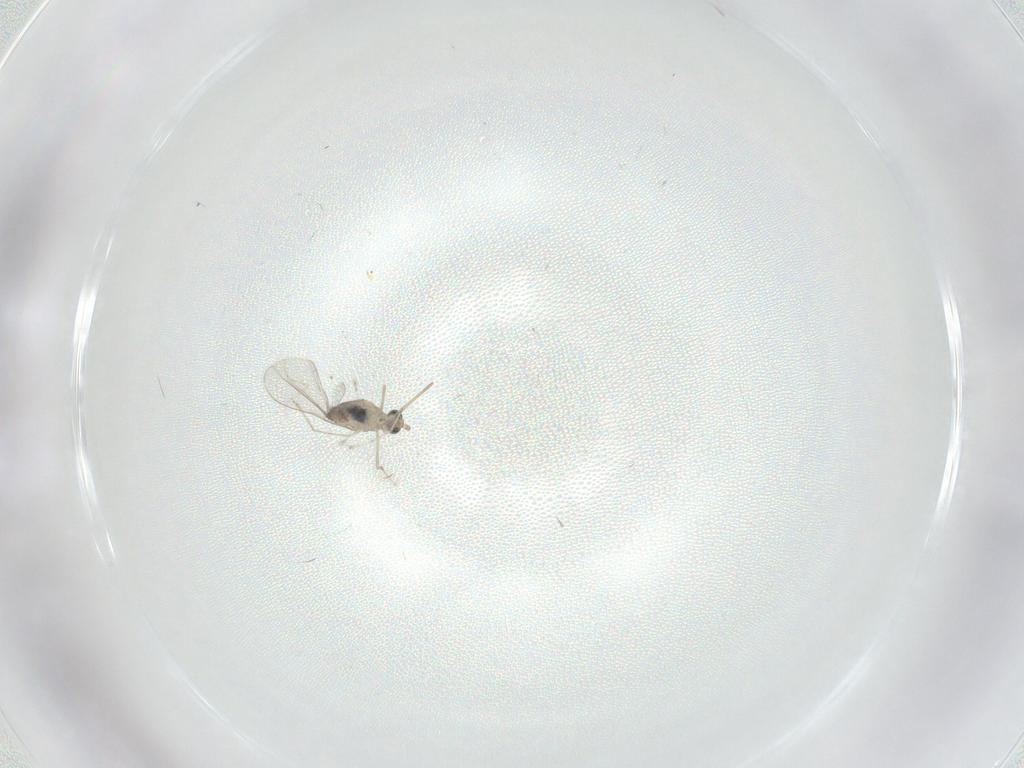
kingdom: Animalia
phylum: Arthropoda
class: Insecta
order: Diptera
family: Cecidomyiidae
